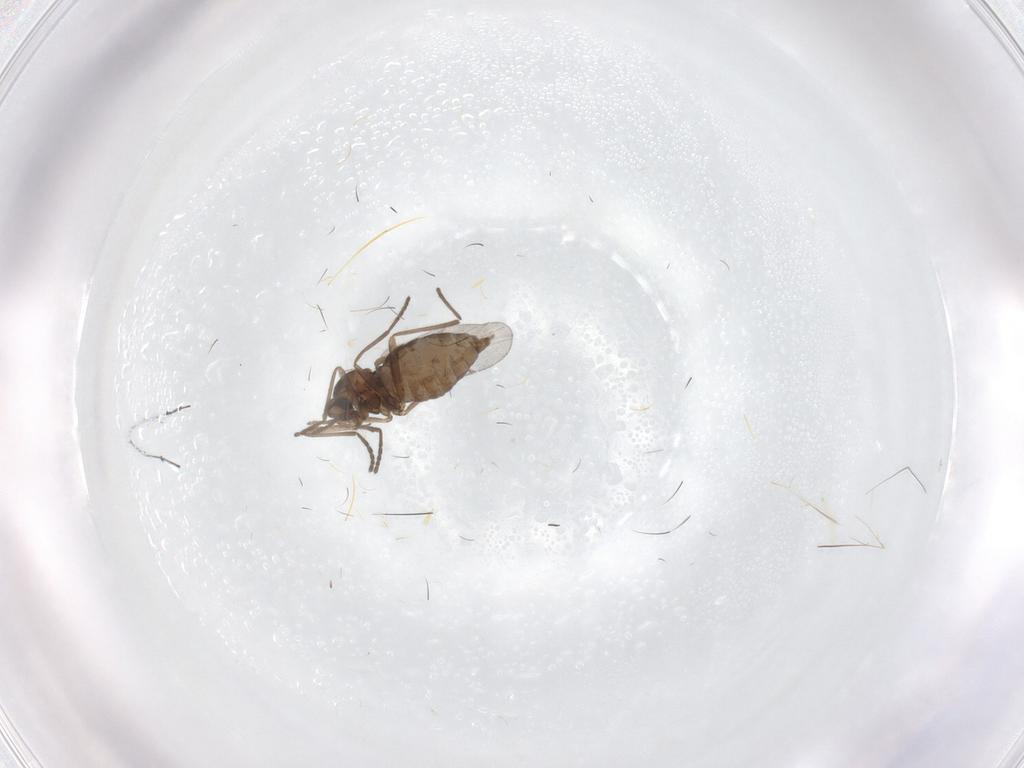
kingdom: Animalia
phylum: Arthropoda
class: Insecta
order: Diptera
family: Cecidomyiidae
